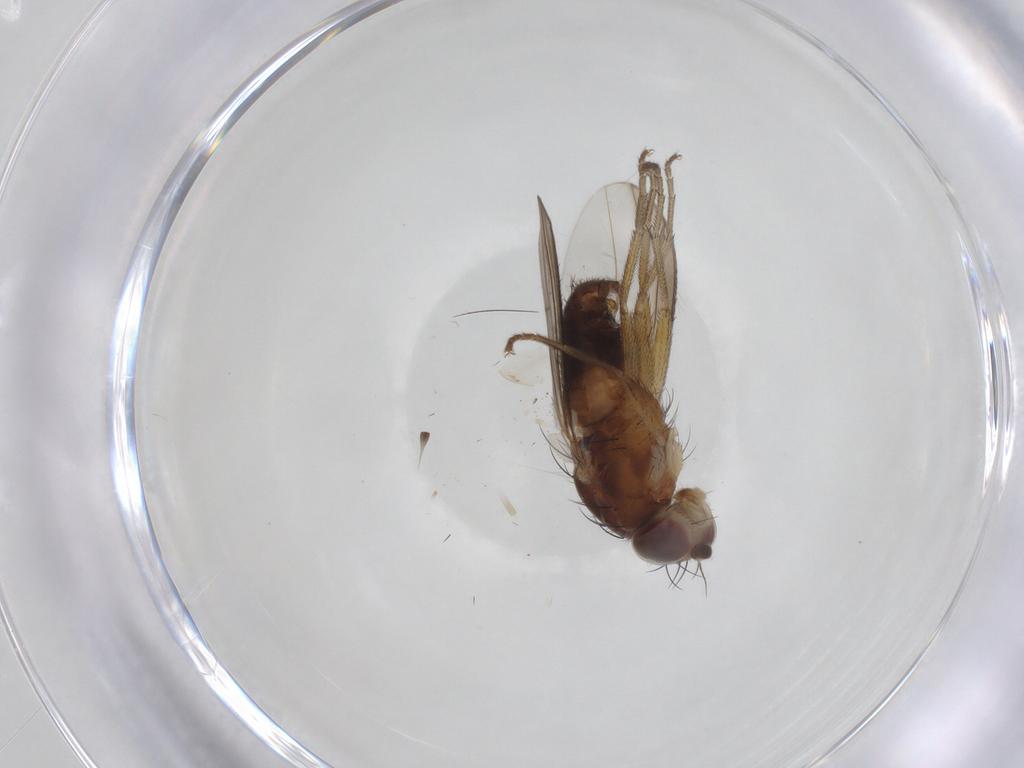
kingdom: Animalia
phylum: Arthropoda
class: Insecta
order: Diptera
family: Heleomyzidae
